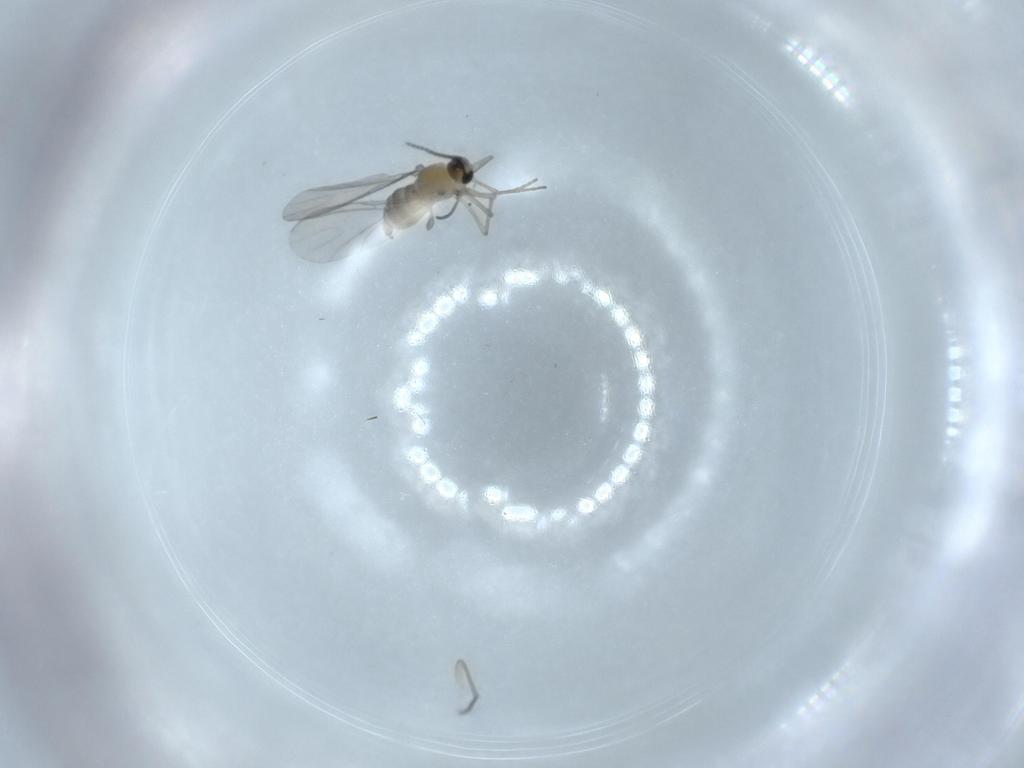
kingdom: Animalia
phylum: Arthropoda
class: Insecta
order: Diptera
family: Sciaridae
